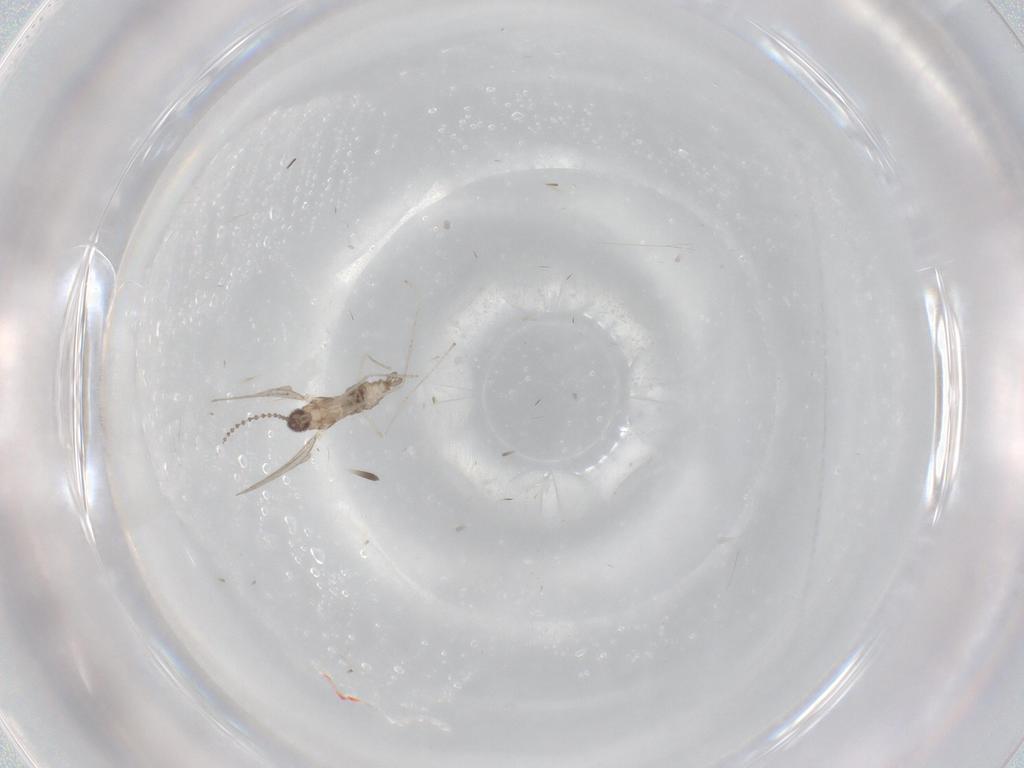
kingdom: Animalia
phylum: Arthropoda
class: Insecta
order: Diptera
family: Cecidomyiidae
